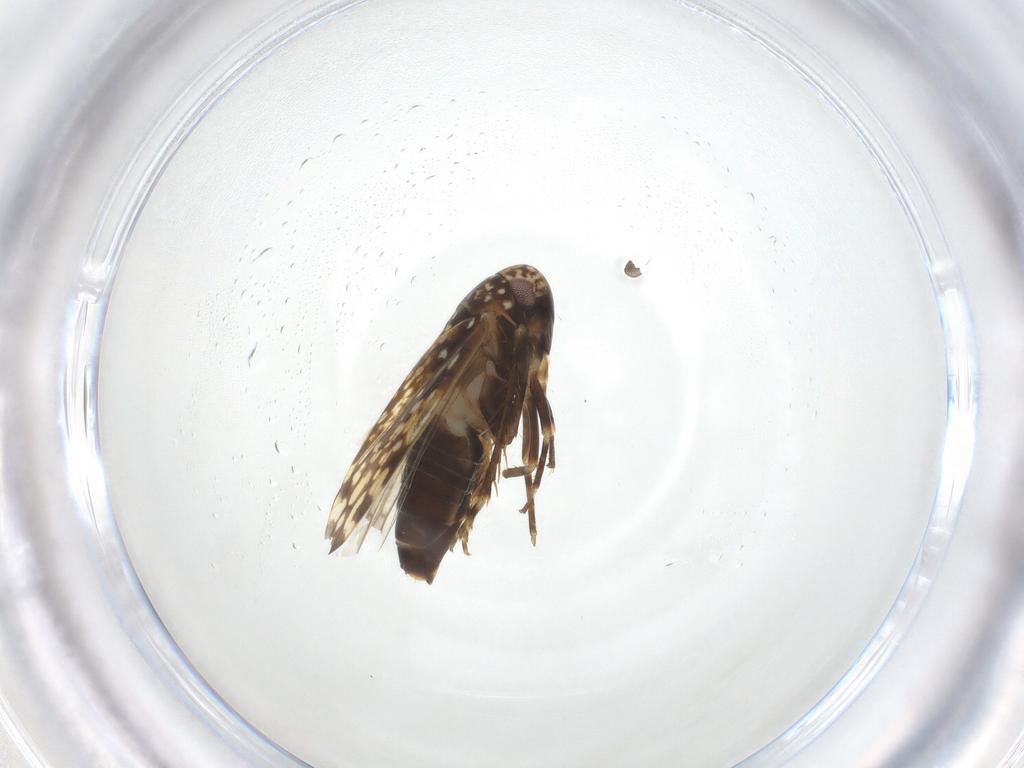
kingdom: Animalia
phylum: Arthropoda
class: Insecta
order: Hemiptera
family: Cicadellidae
